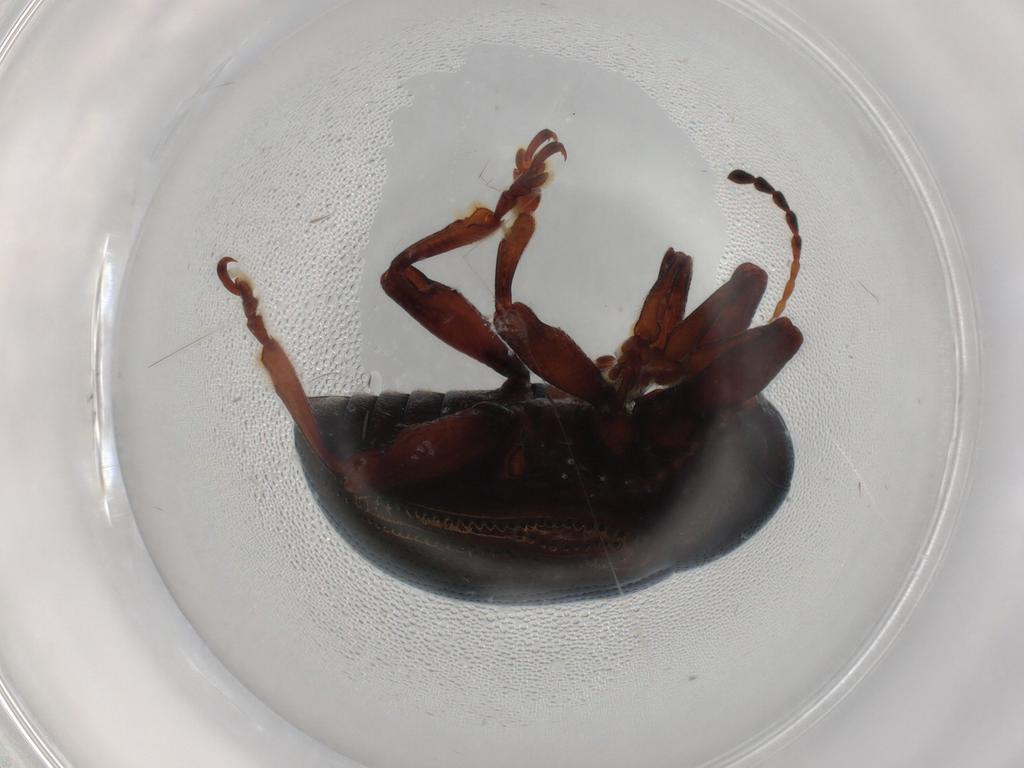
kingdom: Animalia
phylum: Arthropoda
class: Insecta
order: Coleoptera
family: Chrysomelidae
